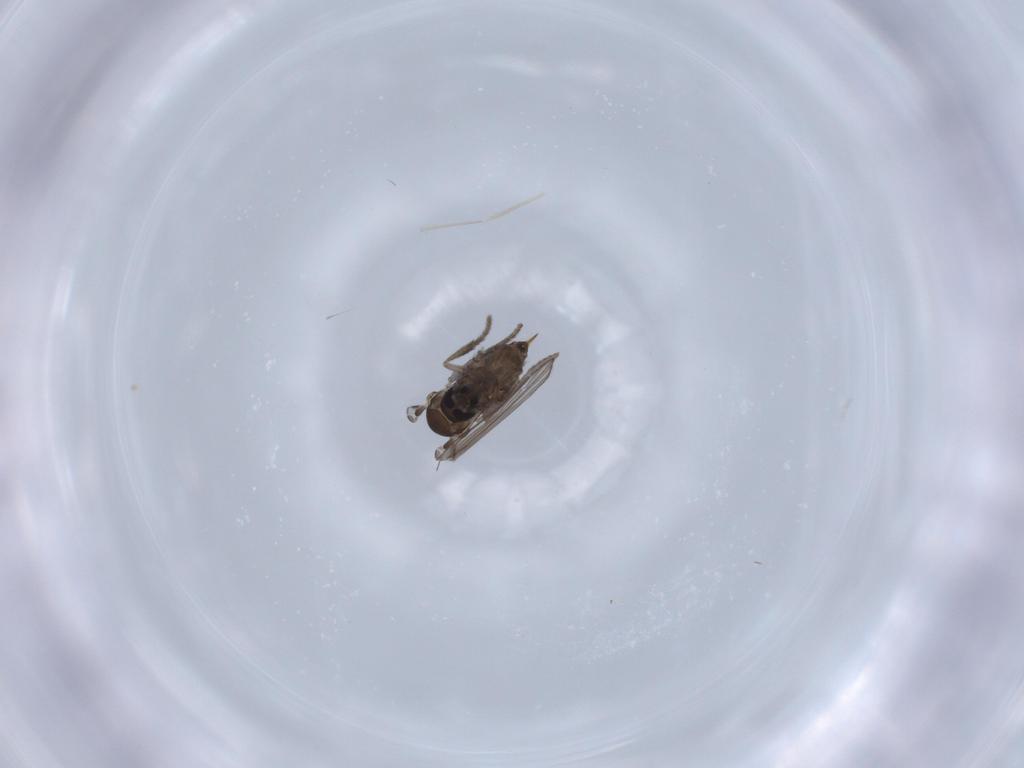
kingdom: Animalia
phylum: Arthropoda
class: Insecta
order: Diptera
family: Psychodidae
